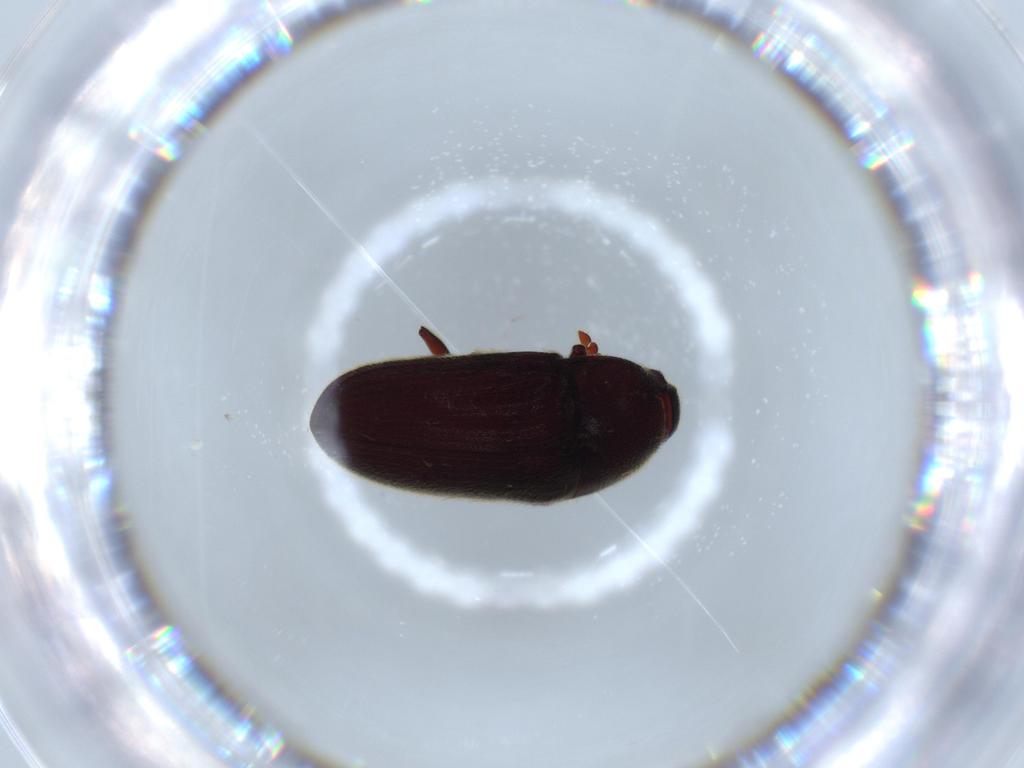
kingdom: Animalia
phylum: Arthropoda
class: Insecta
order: Coleoptera
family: Throscidae
